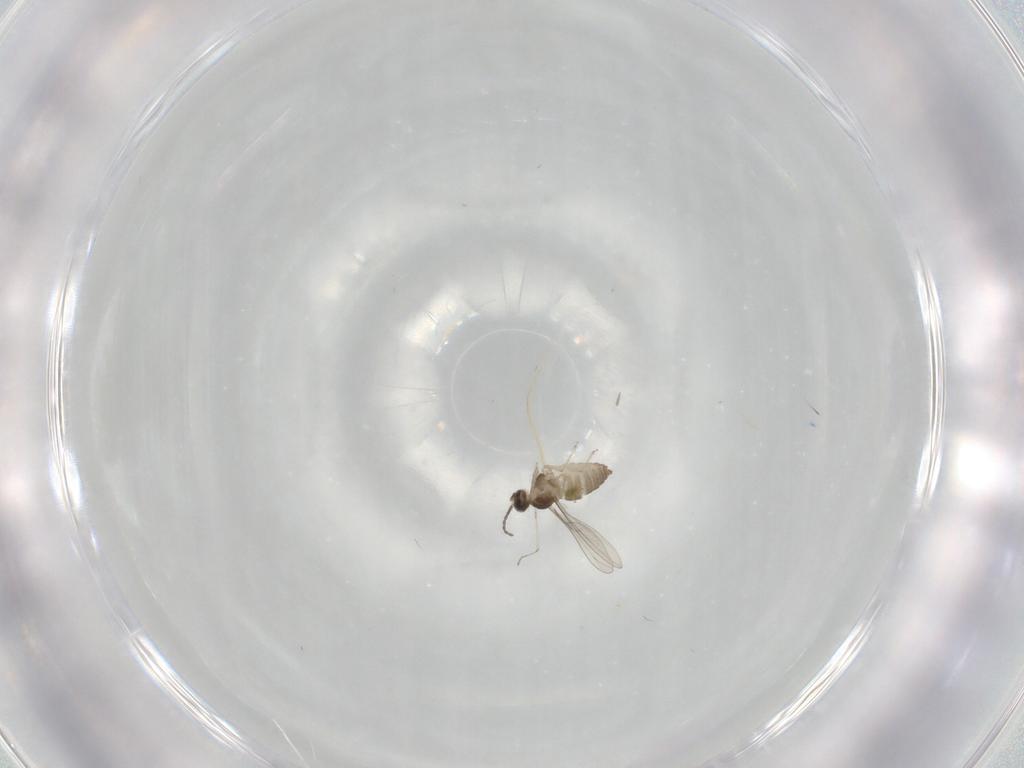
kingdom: Animalia
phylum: Arthropoda
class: Insecta
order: Diptera
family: Cecidomyiidae
